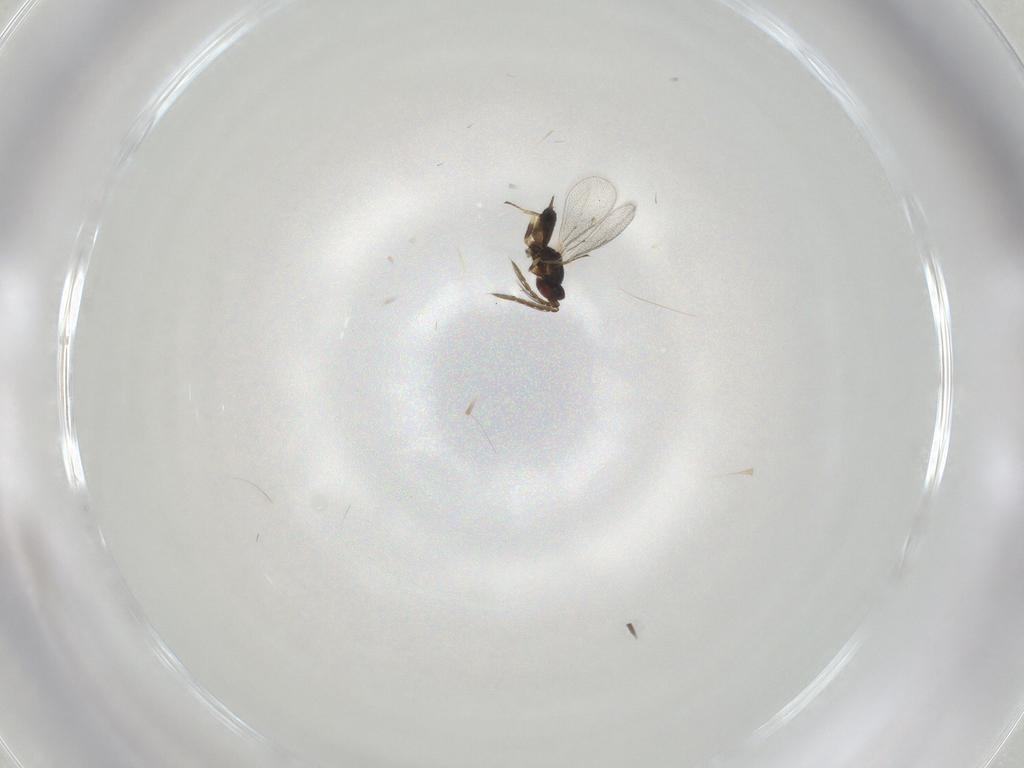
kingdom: Animalia
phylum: Arthropoda
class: Insecta
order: Hymenoptera
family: Eulophidae
